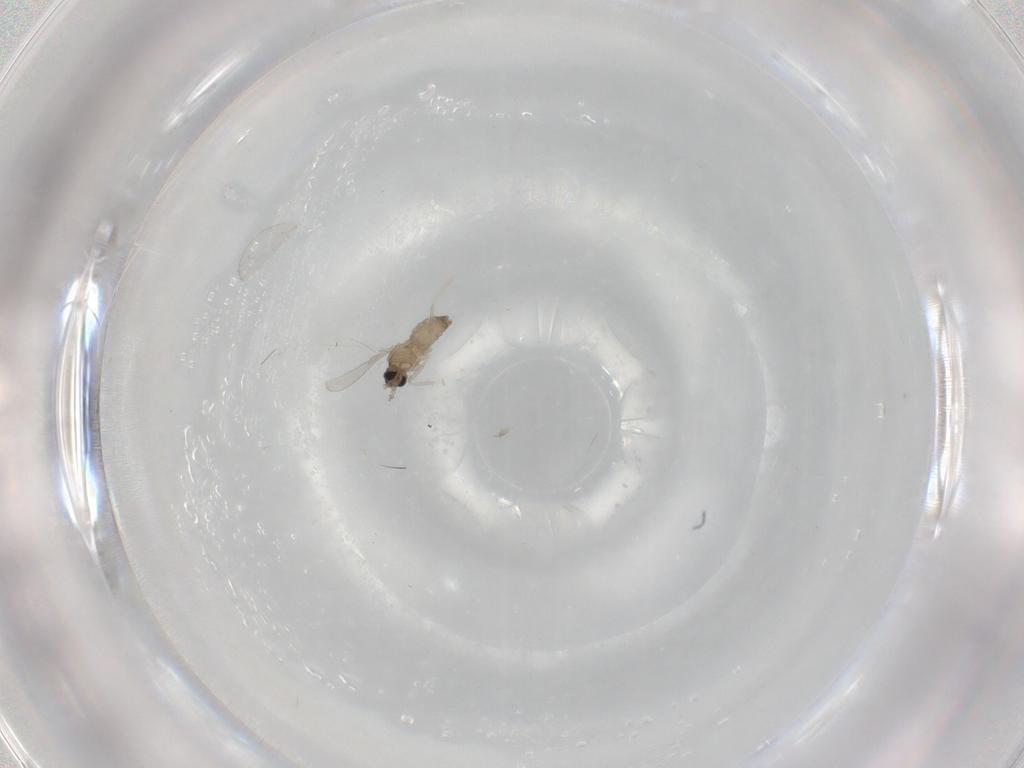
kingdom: Animalia
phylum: Arthropoda
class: Insecta
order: Diptera
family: Cecidomyiidae
